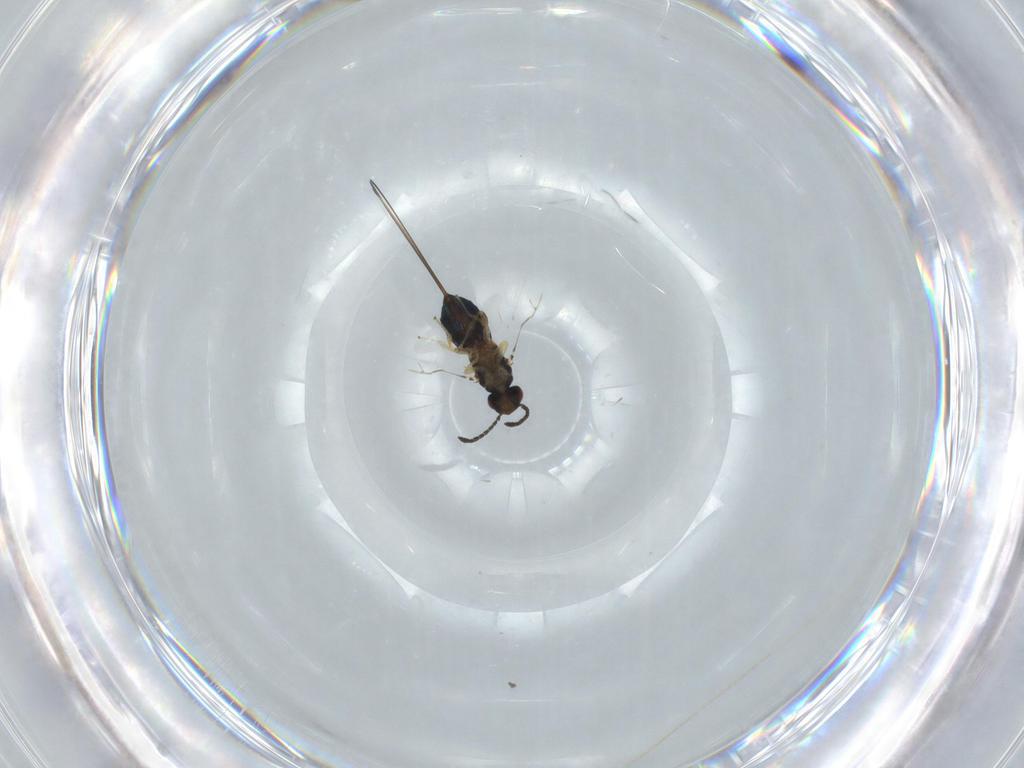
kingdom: Animalia
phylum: Arthropoda
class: Insecta
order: Hymenoptera
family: Pteromalidae
